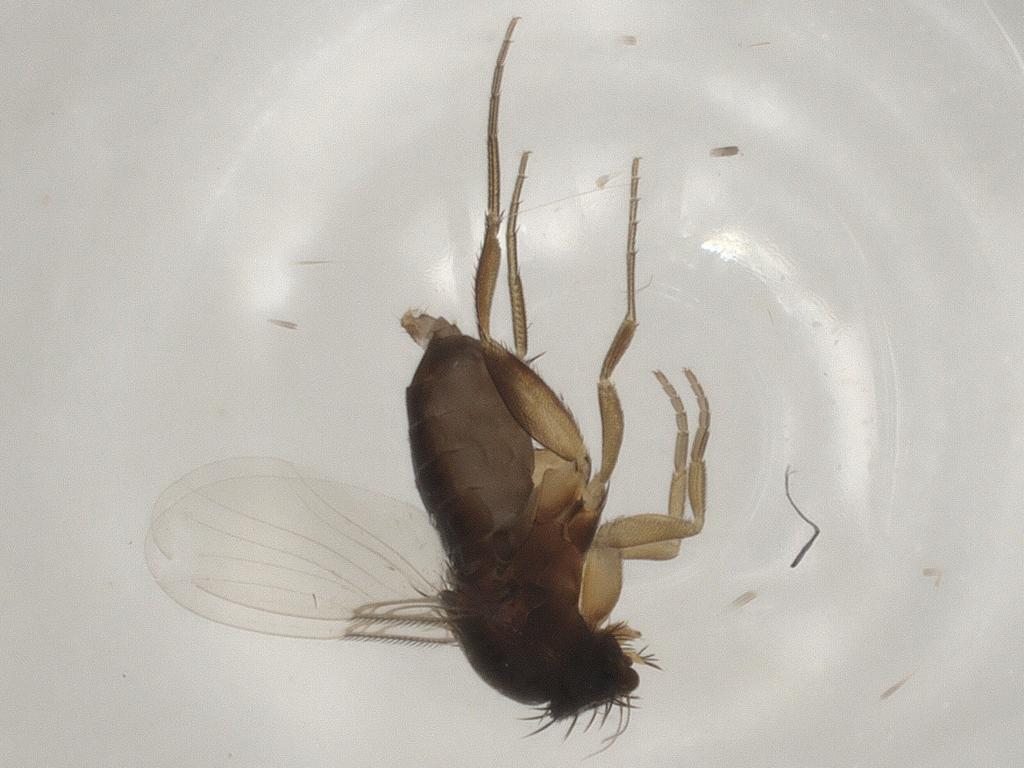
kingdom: Animalia
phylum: Arthropoda
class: Insecta
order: Diptera
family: Phoridae
